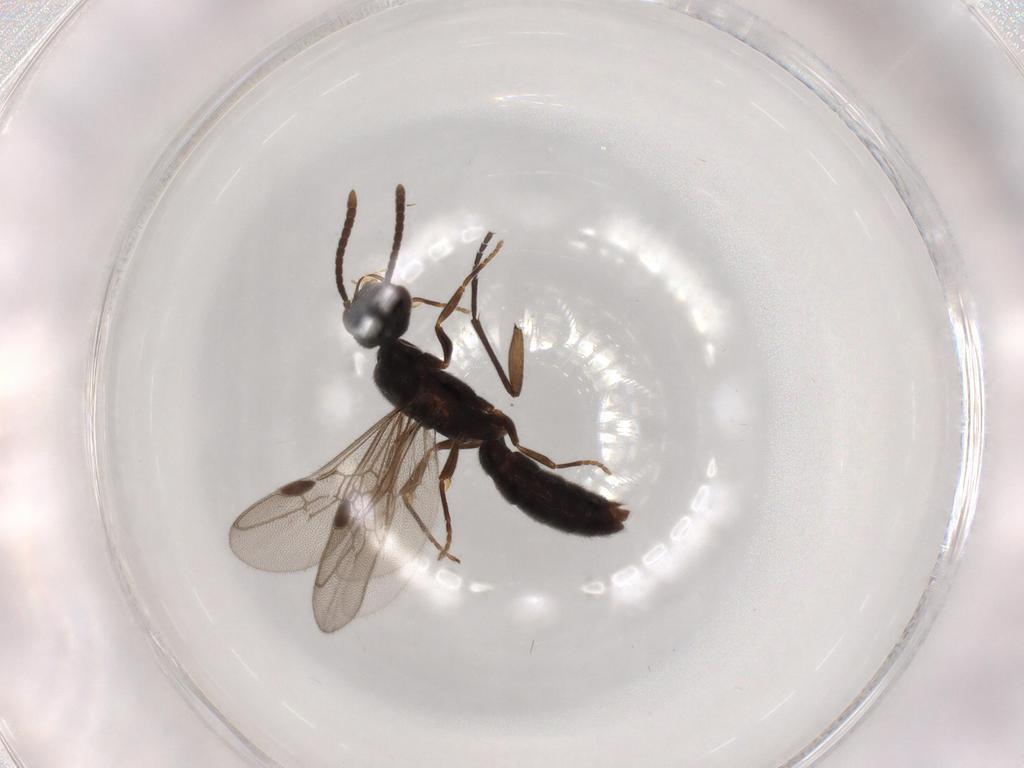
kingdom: Animalia
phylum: Arthropoda
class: Insecta
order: Hymenoptera
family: Formicidae
